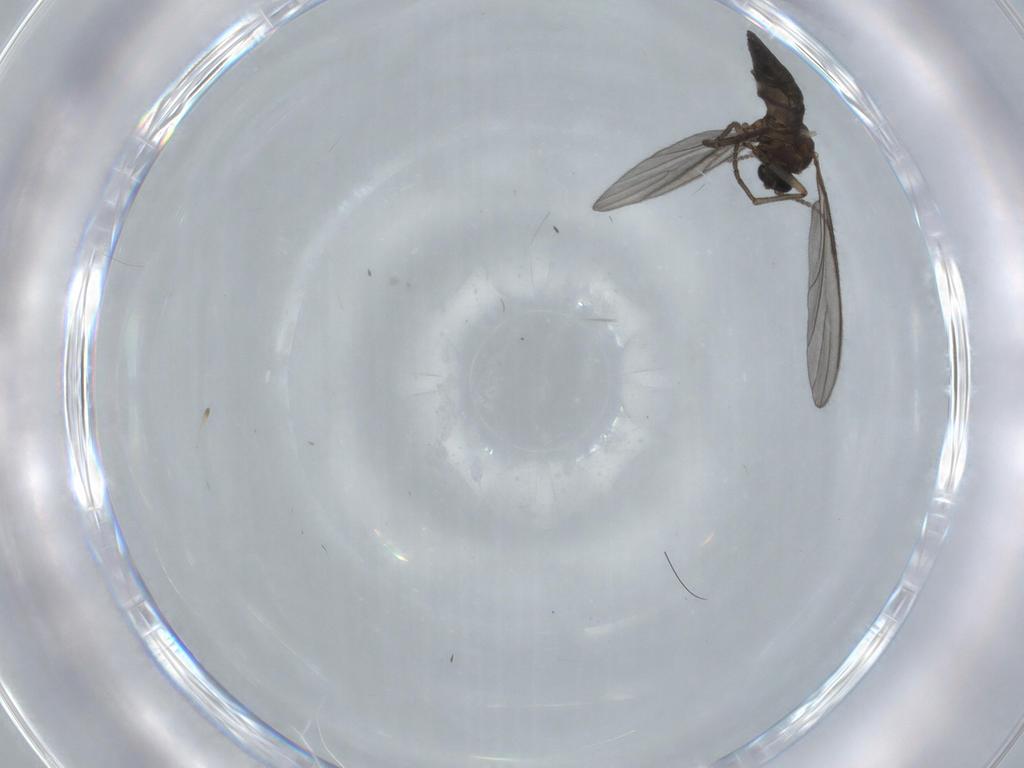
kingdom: Animalia
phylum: Arthropoda
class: Insecta
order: Diptera
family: Sciaridae
